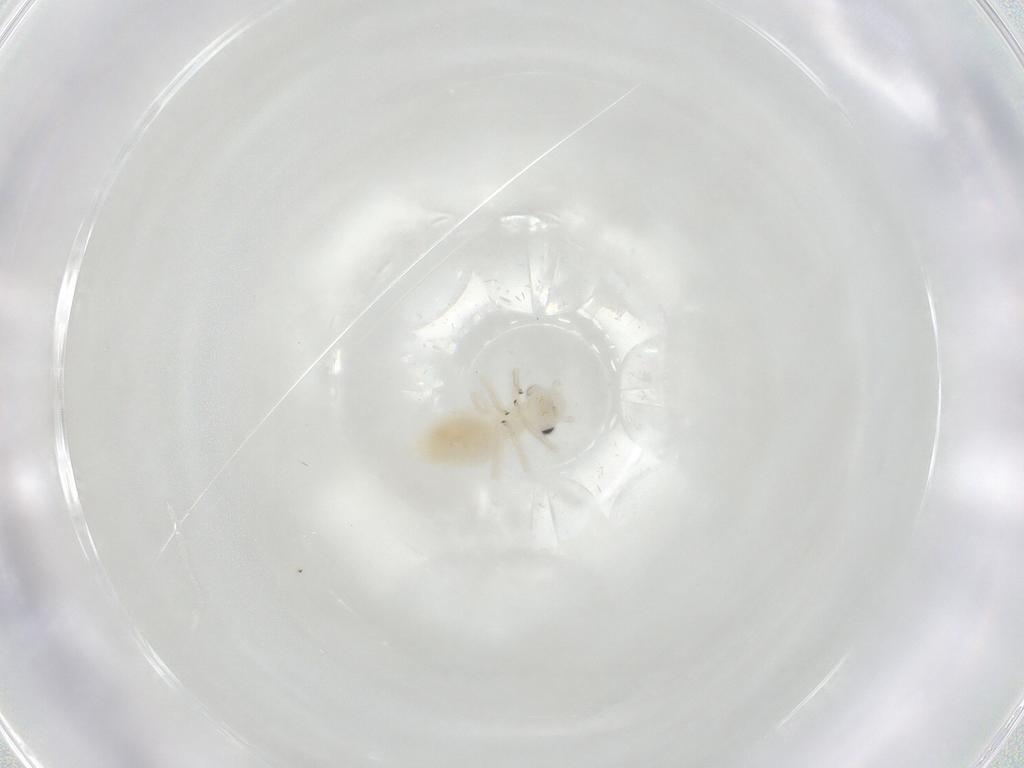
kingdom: Animalia
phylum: Arthropoda
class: Insecta
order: Psocodea
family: Caeciliusidae
